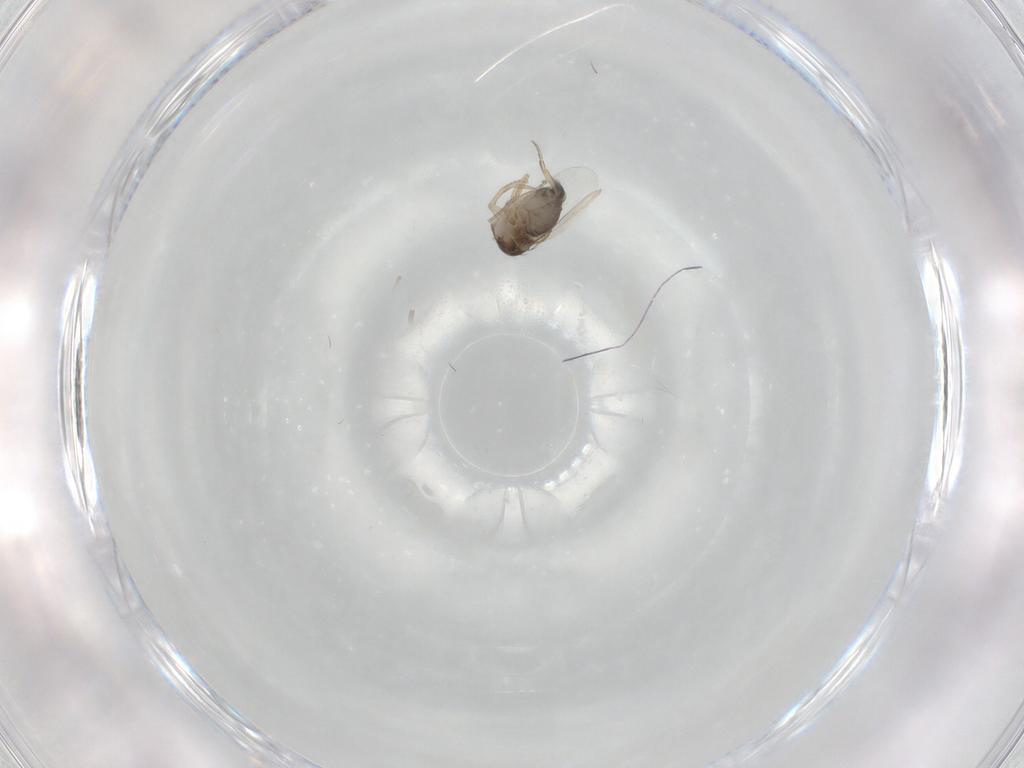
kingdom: Animalia
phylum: Arthropoda
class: Insecta
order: Diptera
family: Phoridae
